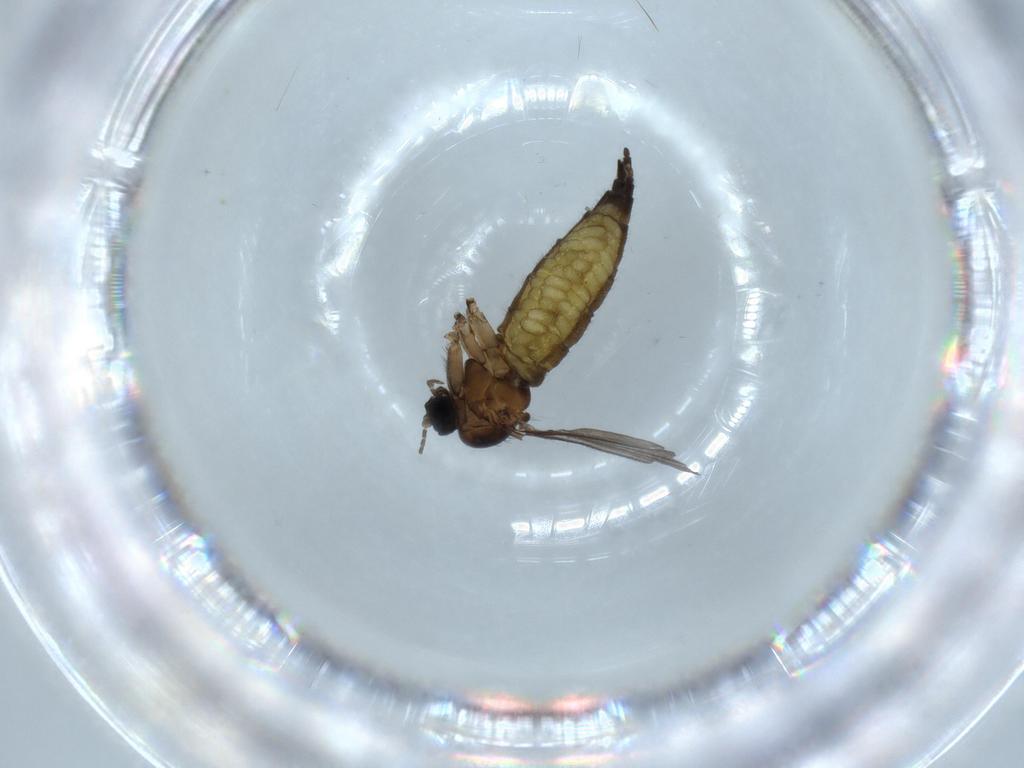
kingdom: Animalia
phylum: Arthropoda
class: Insecta
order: Diptera
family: Sciaridae
